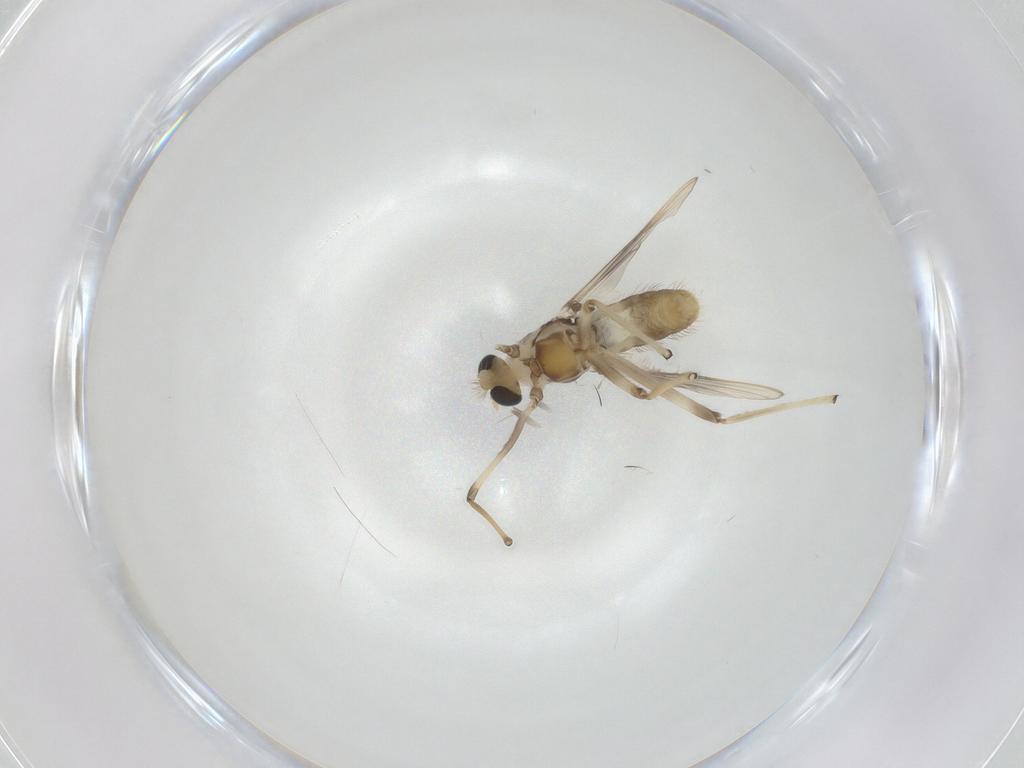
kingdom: Animalia
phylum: Arthropoda
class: Insecta
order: Diptera
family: Chironomidae
